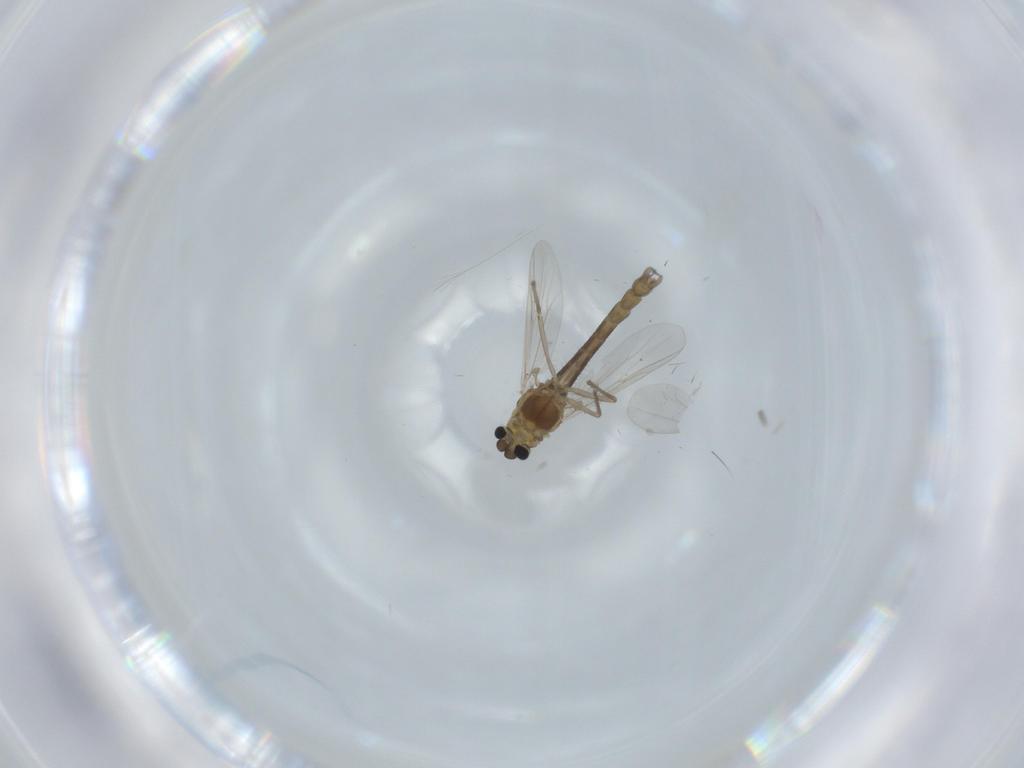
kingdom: Animalia
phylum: Arthropoda
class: Insecta
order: Diptera
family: Chironomidae
